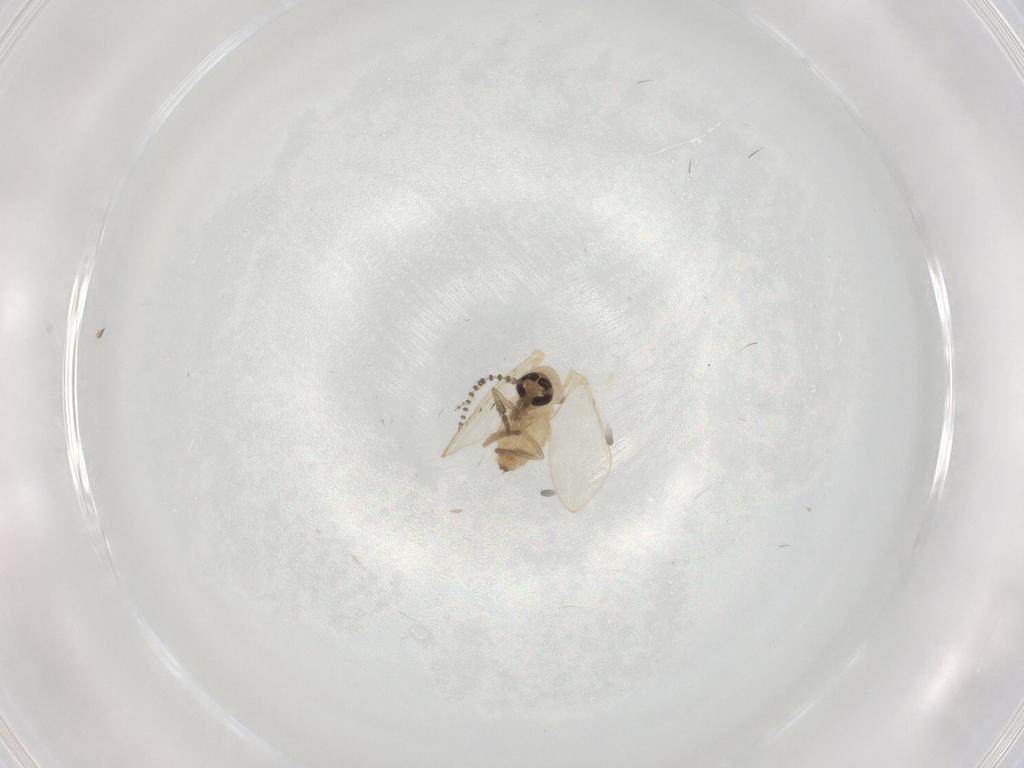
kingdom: Animalia
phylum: Arthropoda
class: Insecta
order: Diptera
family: Psychodidae
